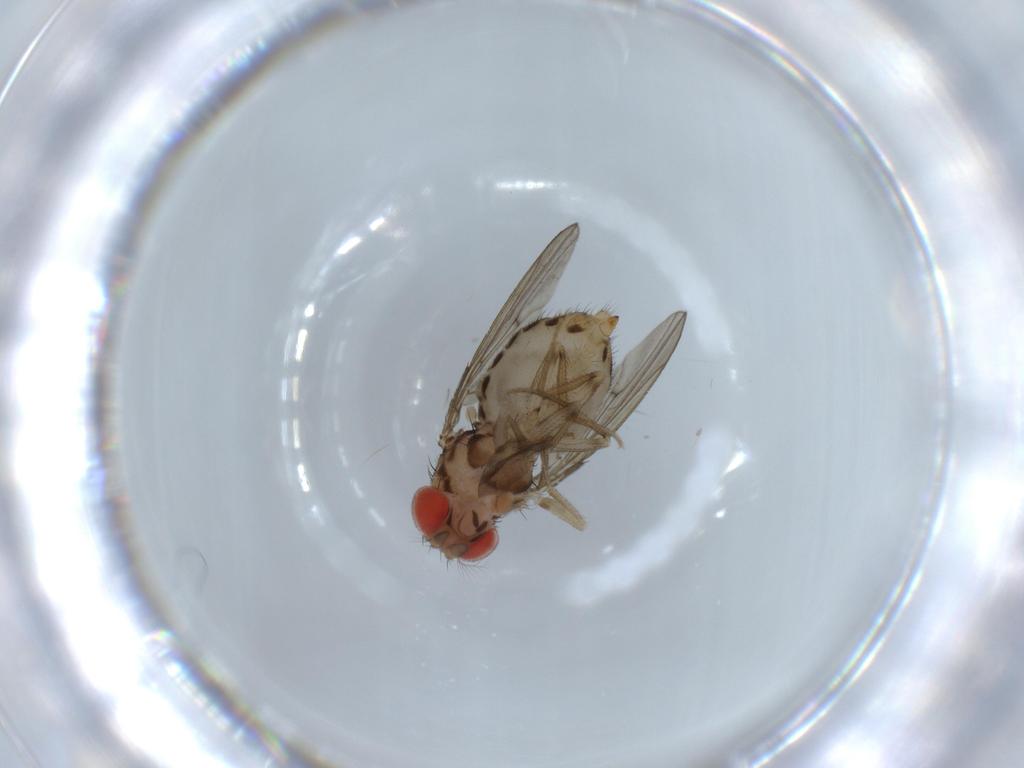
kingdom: Animalia
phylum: Arthropoda
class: Insecta
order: Diptera
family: Drosophilidae
